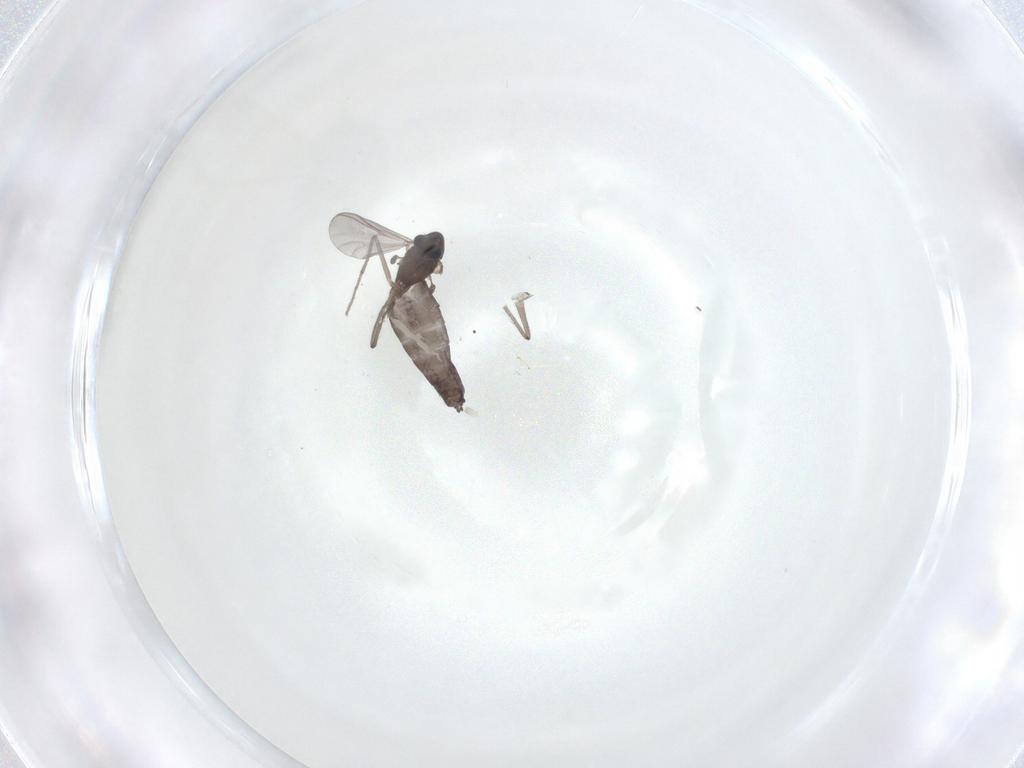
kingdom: Animalia
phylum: Arthropoda
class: Insecta
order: Diptera
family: Chironomidae
